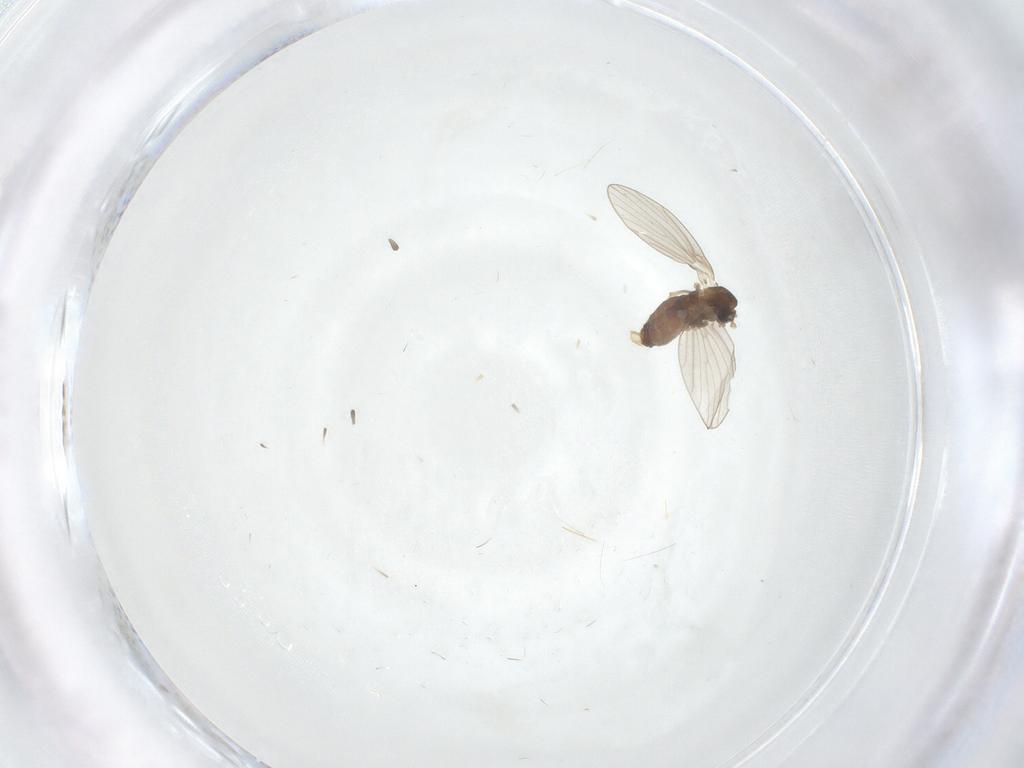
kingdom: Animalia
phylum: Arthropoda
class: Insecta
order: Diptera
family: Cecidomyiidae
